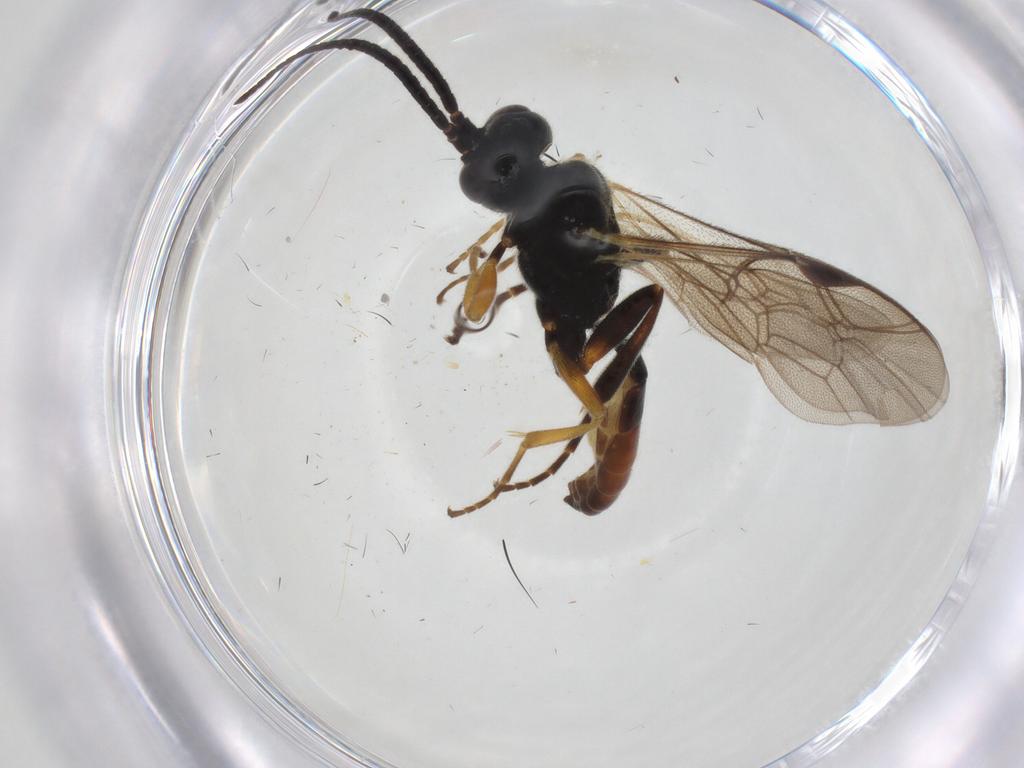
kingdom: Animalia
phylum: Arthropoda
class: Insecta
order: Hymenoptera
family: Ichneumonidae
